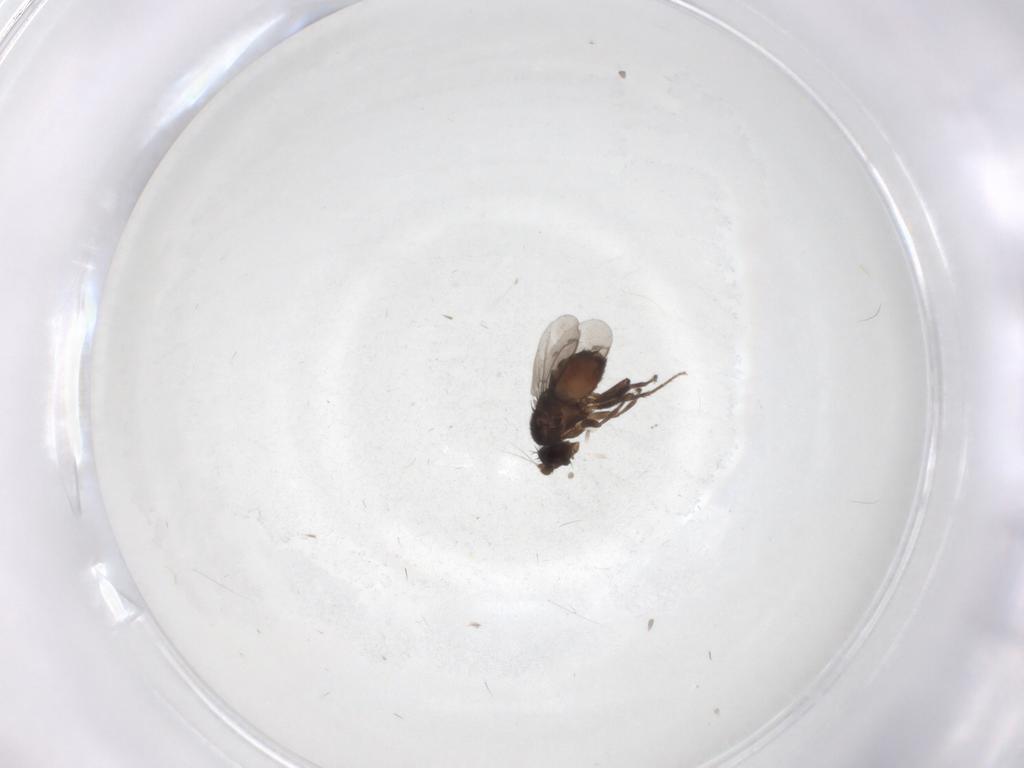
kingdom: Animalia
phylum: Arthropoda
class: Insecta
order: Diptera
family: Sphaeroceridae
